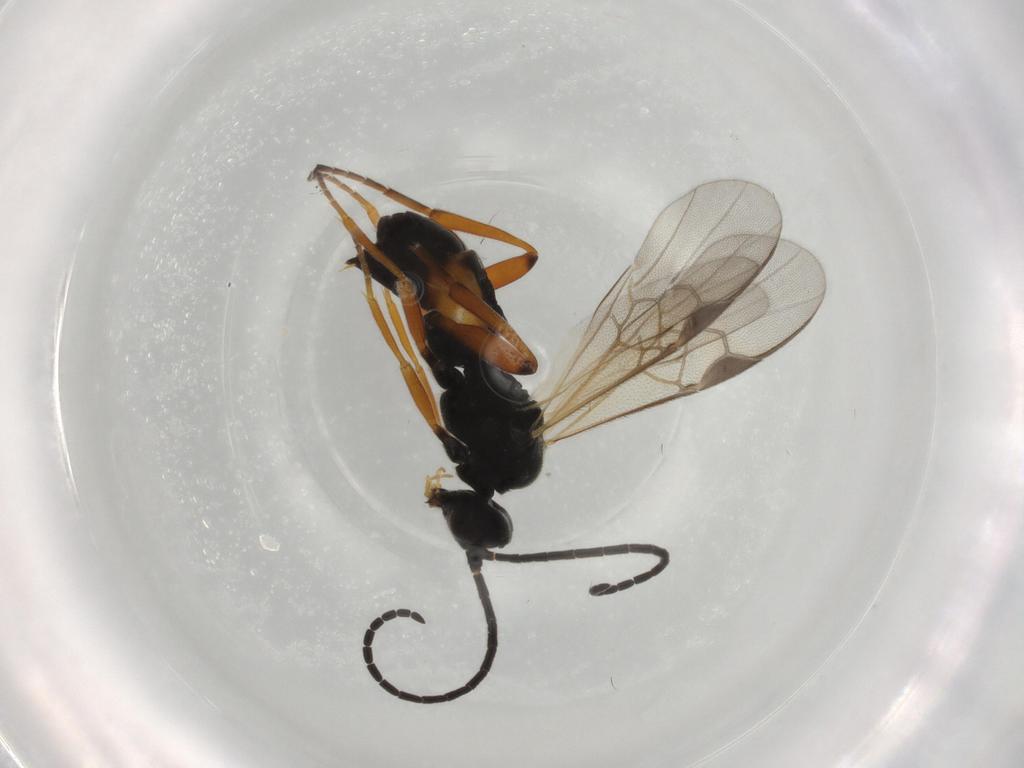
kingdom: Animalia
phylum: Arthropoda
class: Insecta
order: Hymenoptera
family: Braconidae
